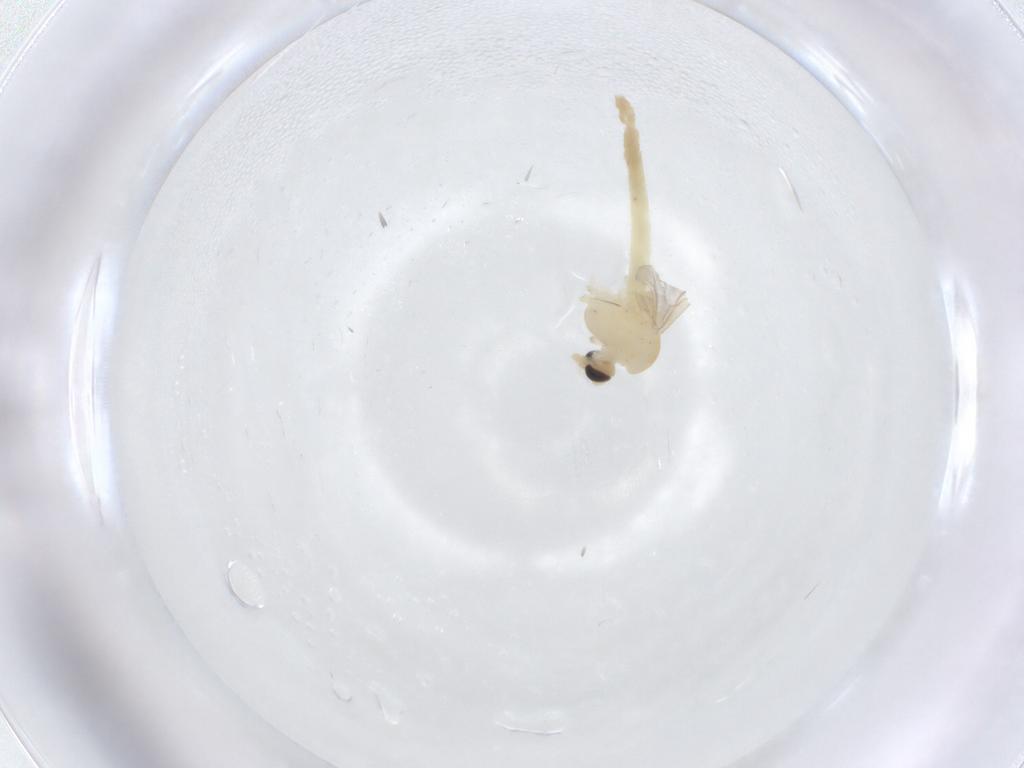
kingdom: Animalia
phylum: Arthropoda
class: Insecta
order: Diptera
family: Chironomidae
